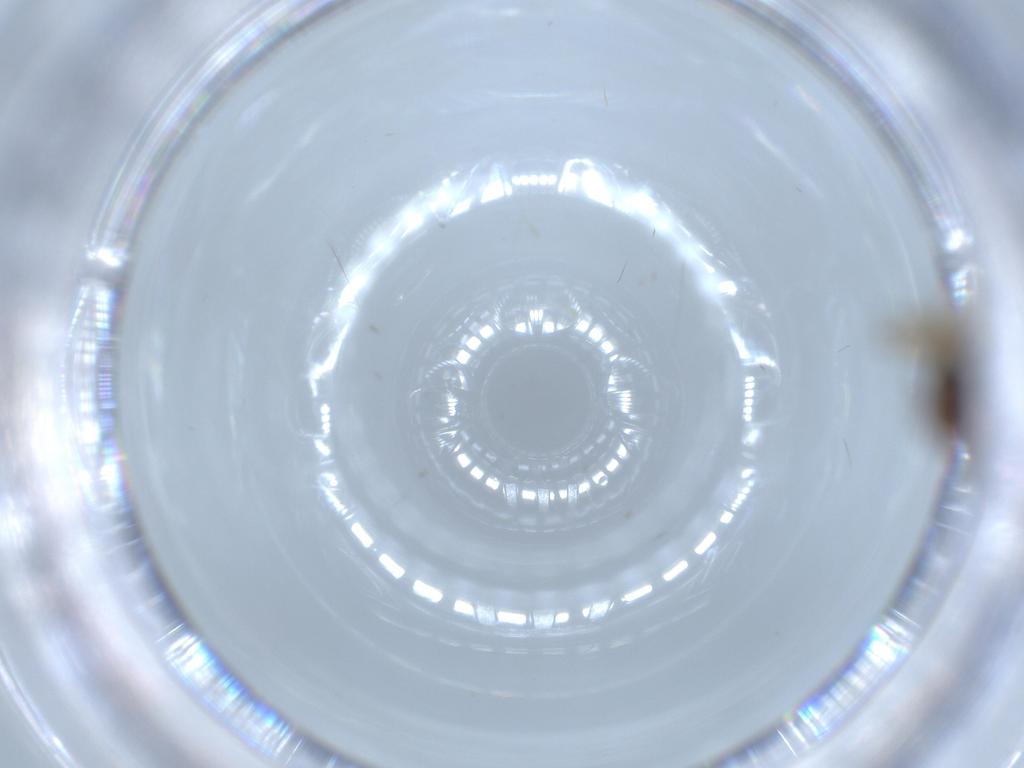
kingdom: Animalia
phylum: Arthropoda
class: Insecta
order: Diptera
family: Ceratopogonidae
